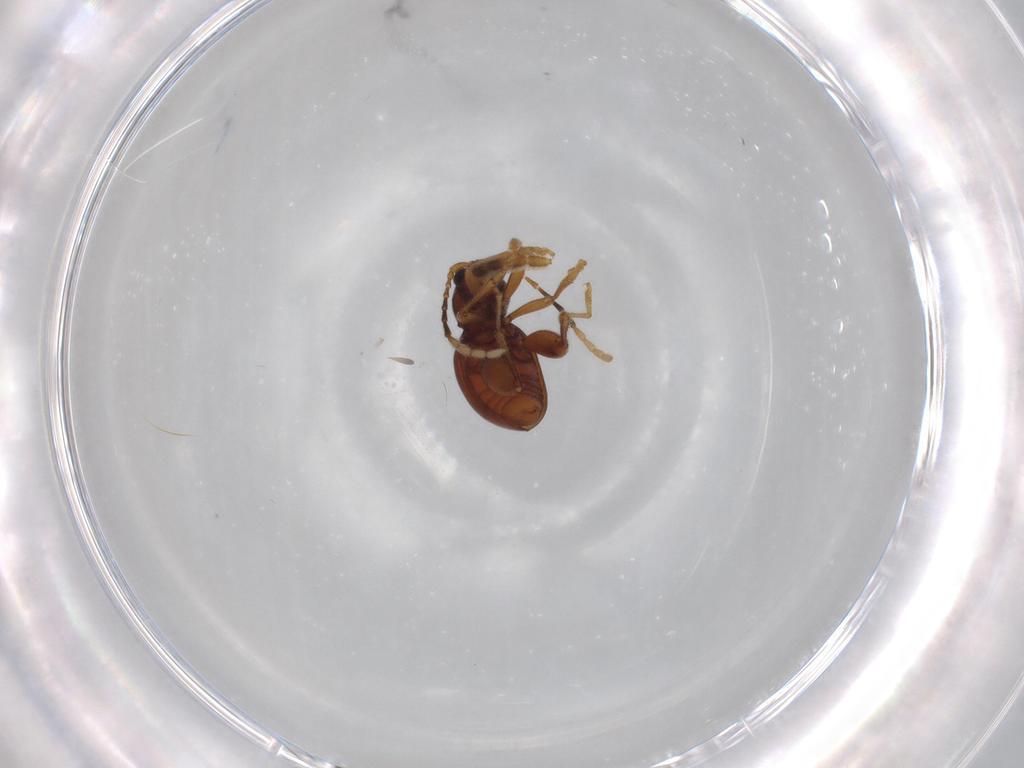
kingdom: Animalia
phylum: Arthropoda
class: Insecta
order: Coleoptera
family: Chrysomelidae
